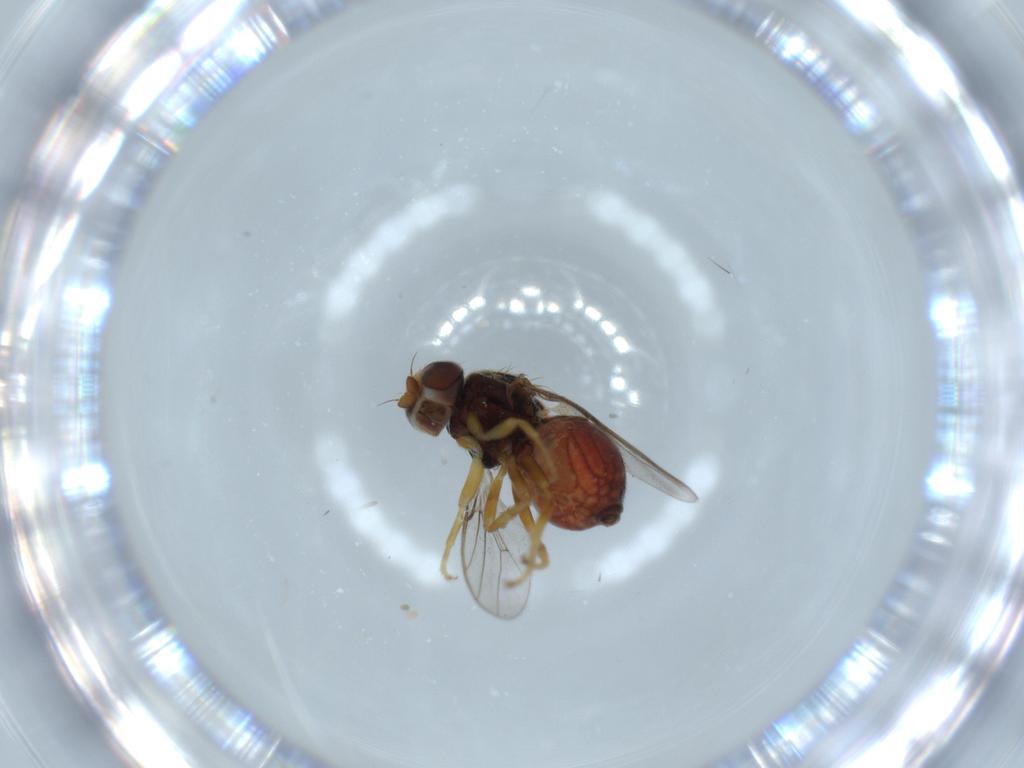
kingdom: Animalia
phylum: Arthropoda
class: Insecta
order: Diptera
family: Chloropidae
